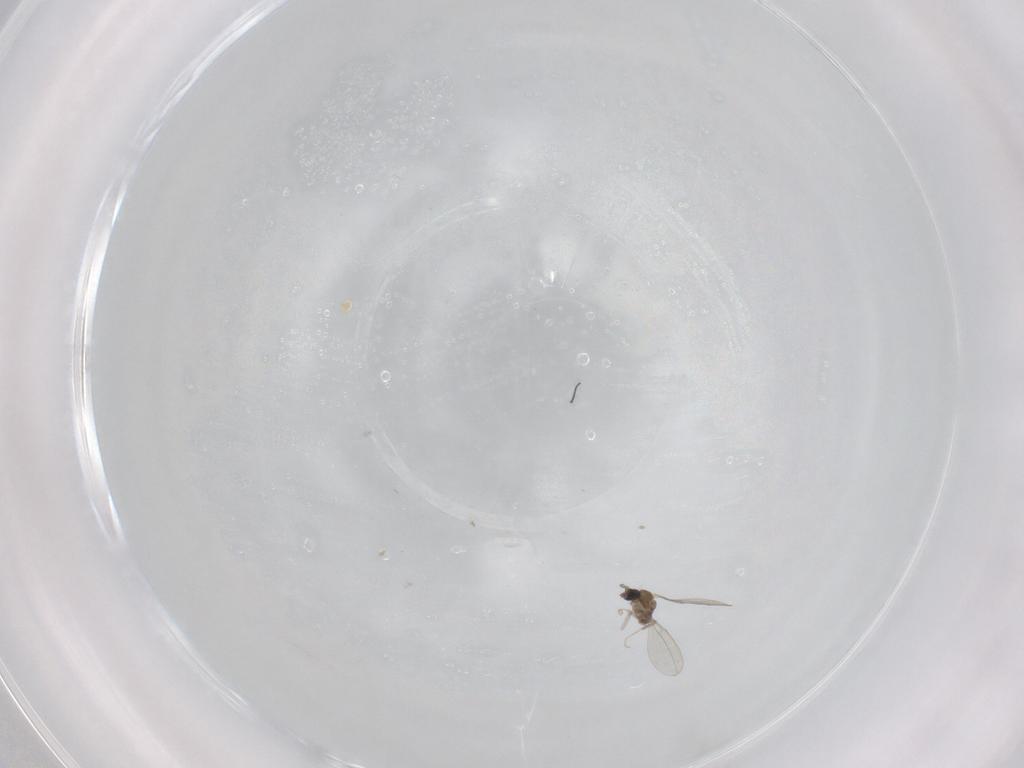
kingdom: Animalia
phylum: Arthropoda
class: Insecta
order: Diptera
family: Cecidomyiidae
